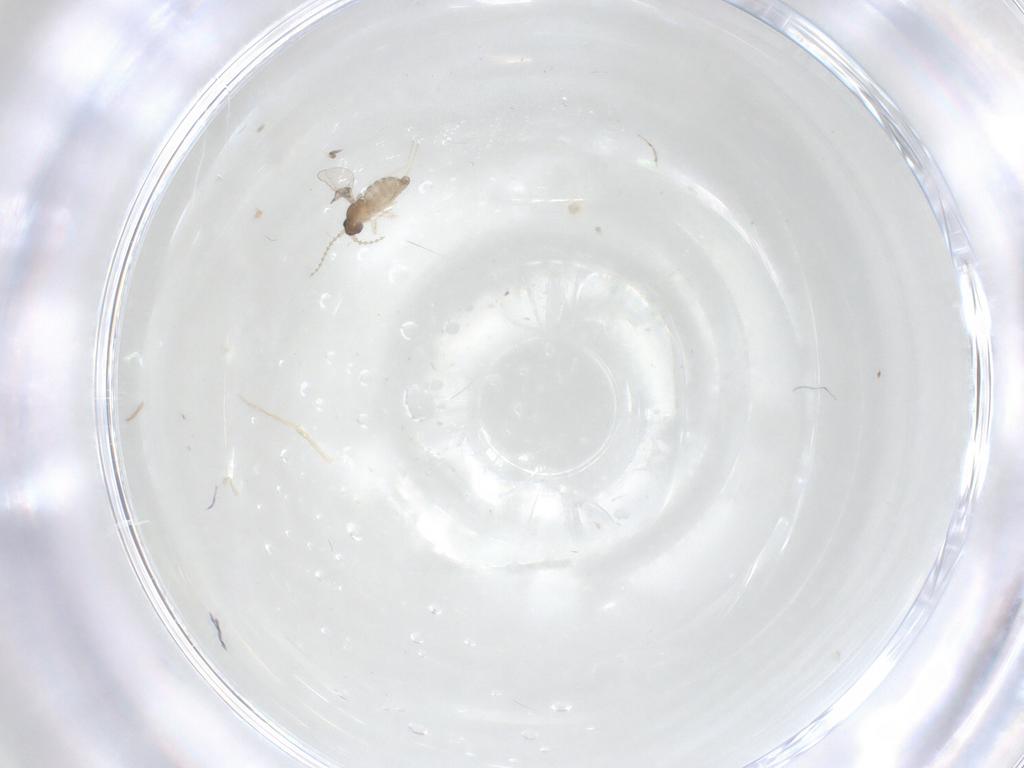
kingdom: Animalia
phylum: Arthropoda
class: Insecta
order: Diptera
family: Cecidomyiidae
